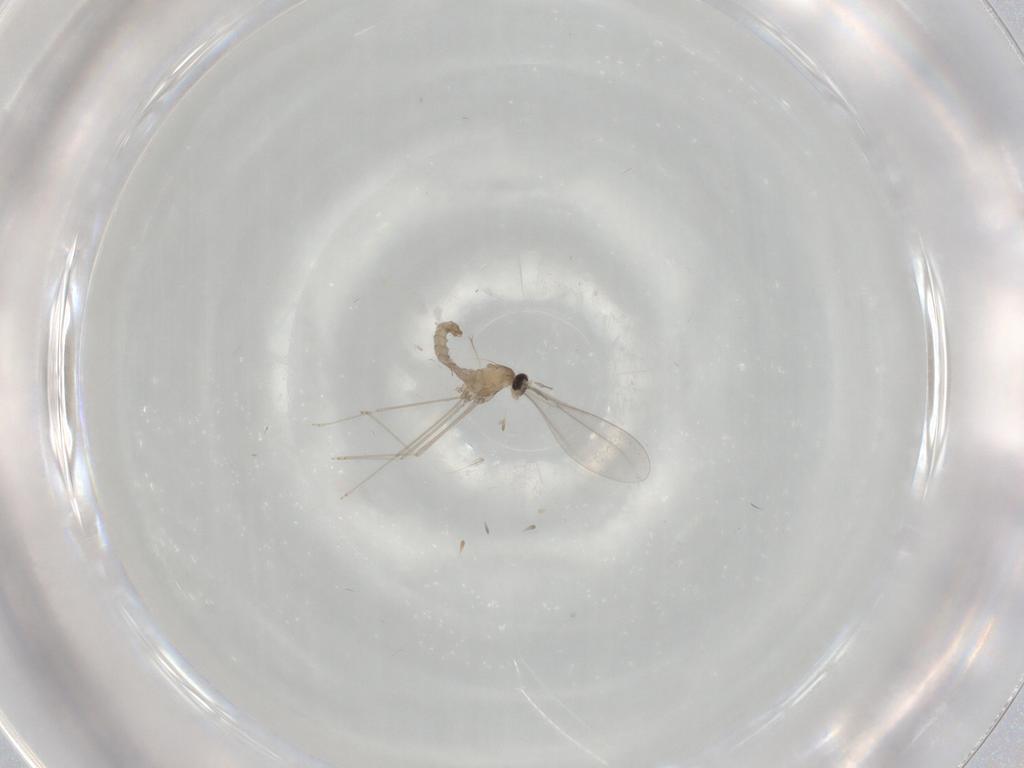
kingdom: Animalia
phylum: Arthropoda
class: Insecta
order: Diptera
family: Cecidomyiidae
